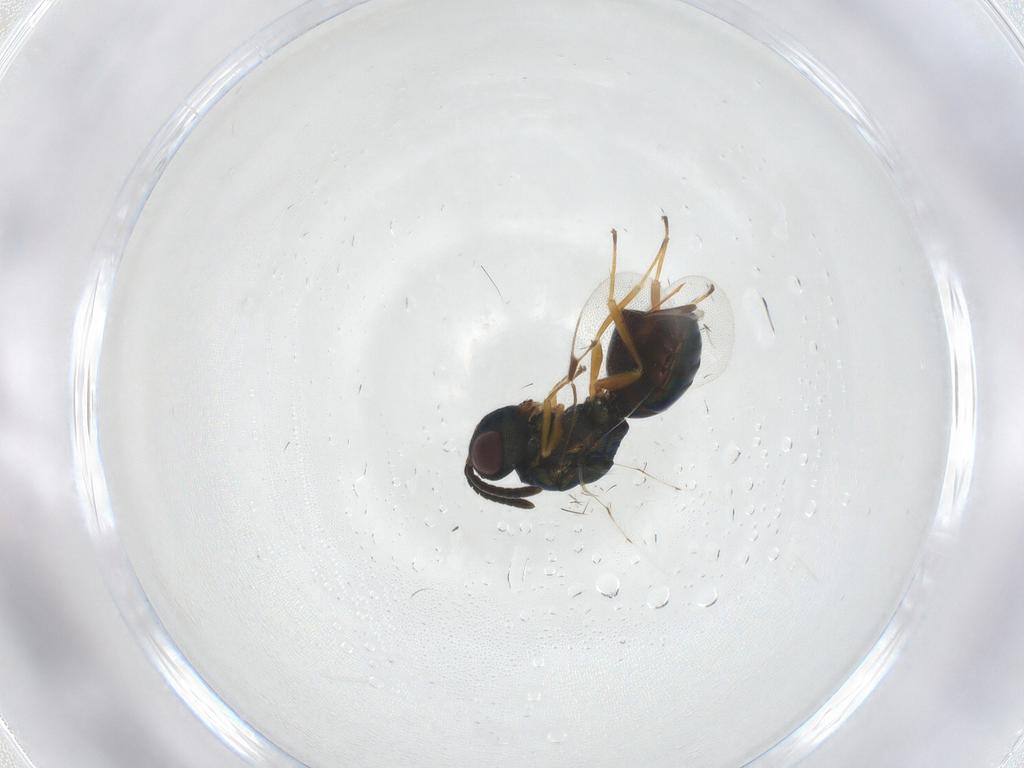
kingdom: Animalia
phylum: Arthropoda
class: Insecta
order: Hymenoptera
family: Pteromalidae
